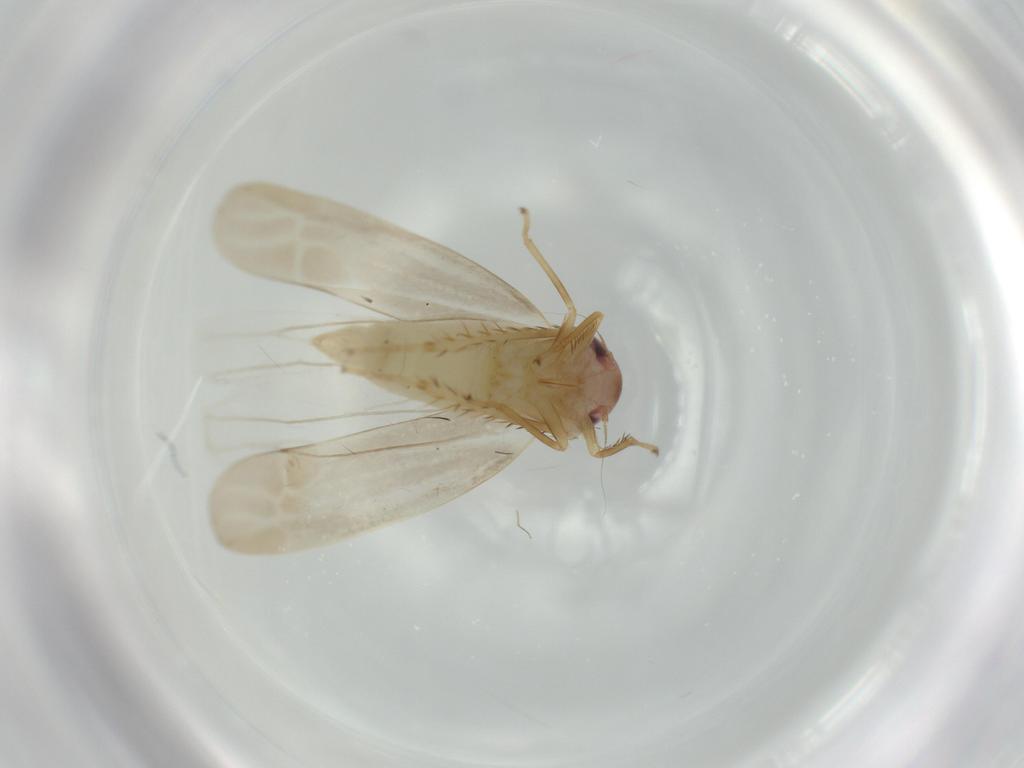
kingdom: Animalia
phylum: Arthropoda
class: Insecta
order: Hemiptera
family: Cicadellidae
